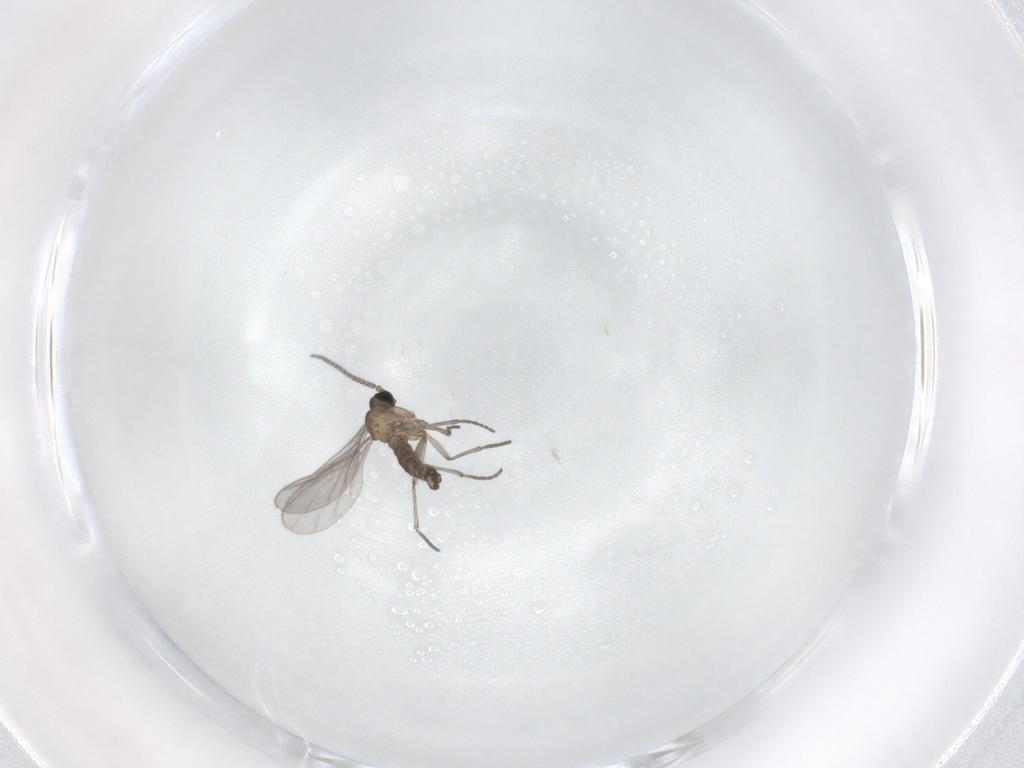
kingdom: Animalia
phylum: Arthropoda
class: Insecta
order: Diptera
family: Sciaridae
